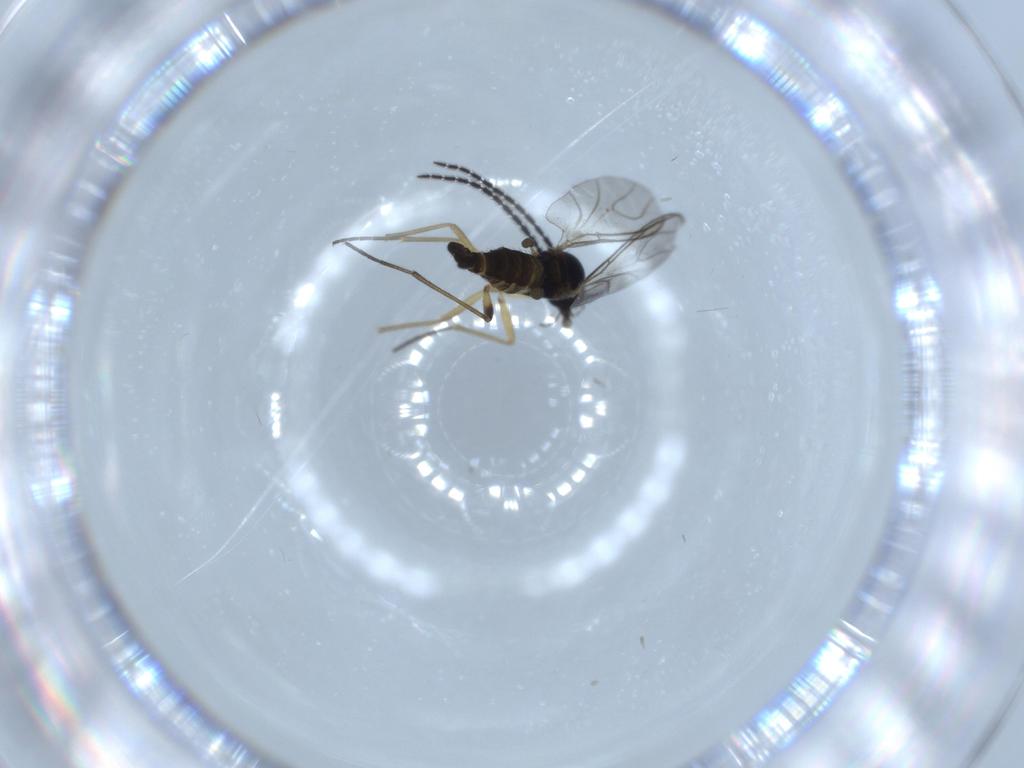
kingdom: Animalia
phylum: Arthropoda
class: Insecta
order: Diptera
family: Sciaridae
